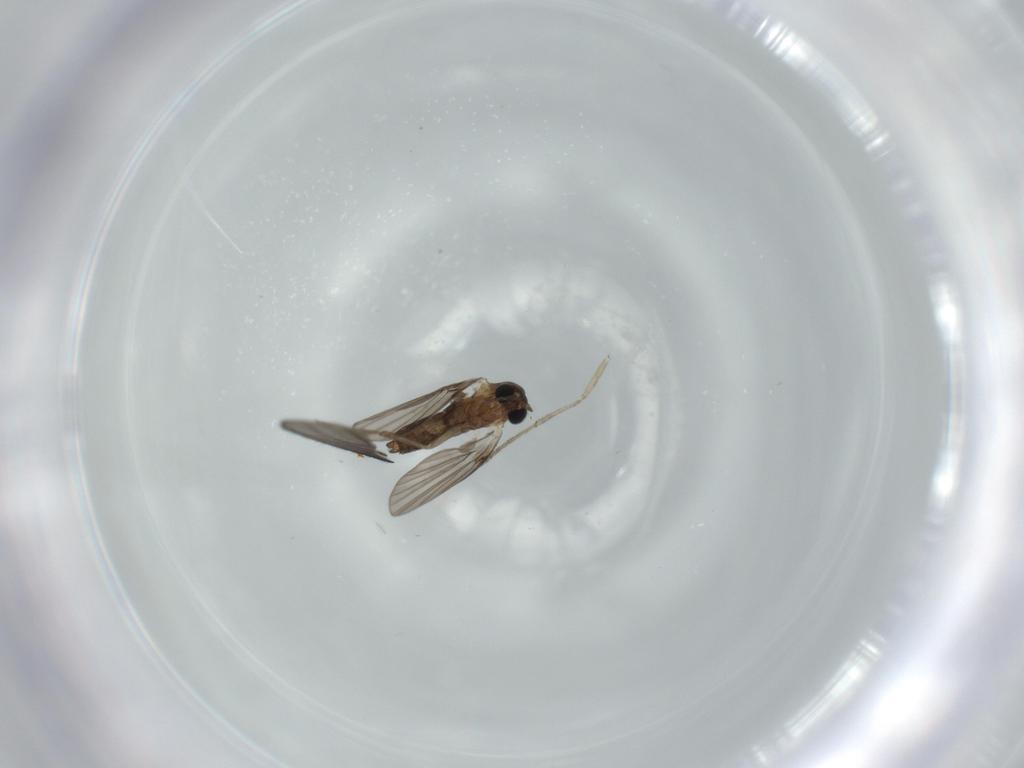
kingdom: Animalia
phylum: Arthropoda
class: Insecta
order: Diptera
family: Psychodidae
